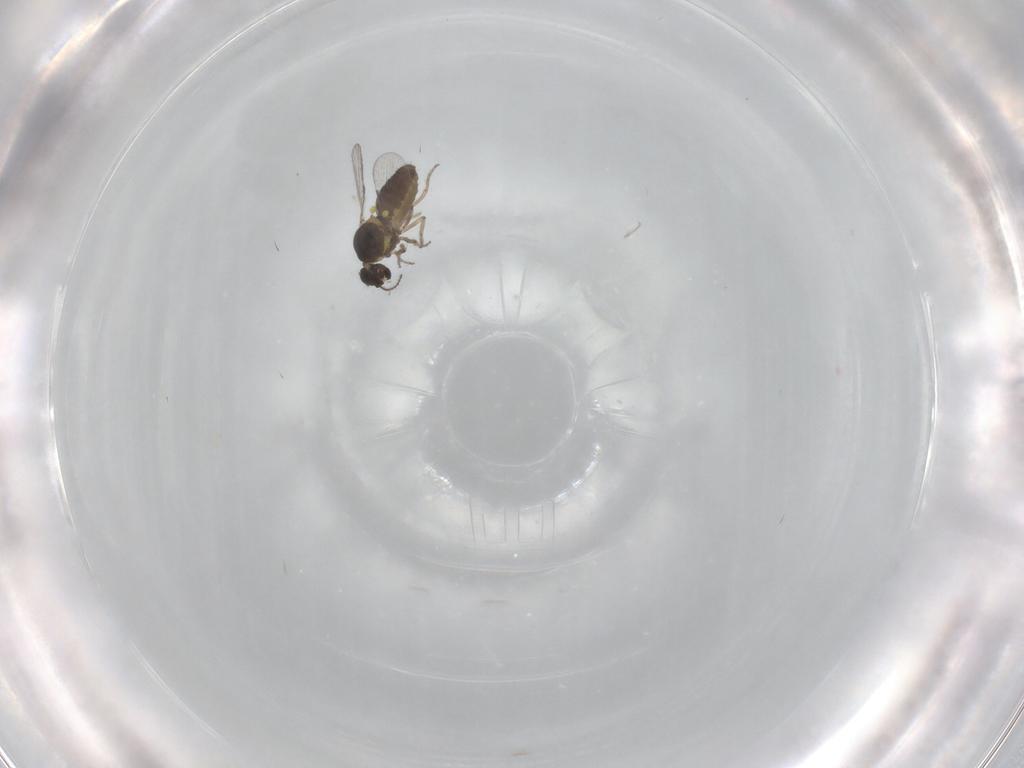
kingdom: Animalia
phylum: Arthropoda
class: Insecta
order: Diptera
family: Ceratopogonidae
